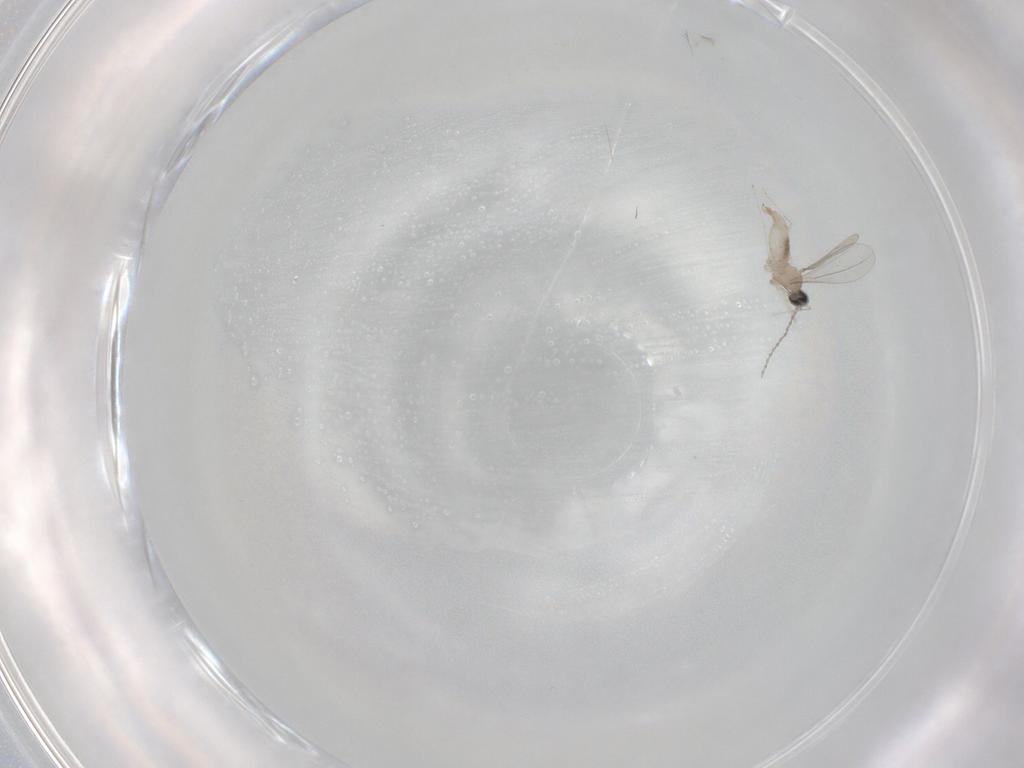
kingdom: Animalia
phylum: Arthropoda
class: Insecta
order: Diptera
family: Cecidomyiidae
